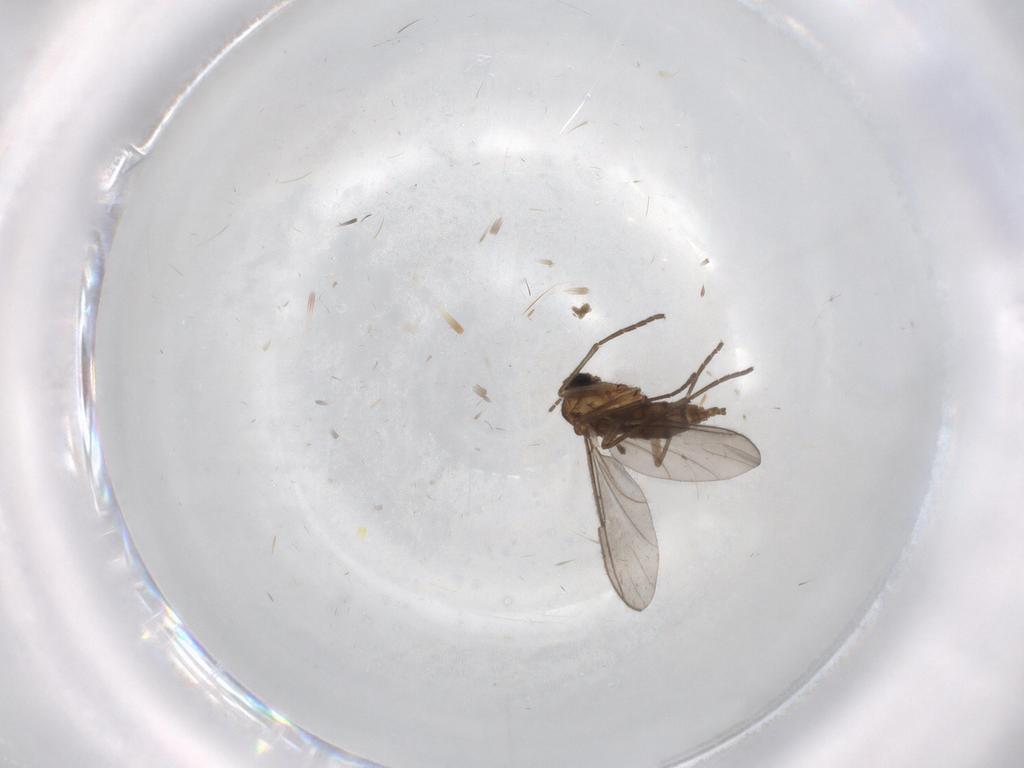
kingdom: Animalia
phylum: Arthropoda
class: Insecta
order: Diptera
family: Sciaridae
